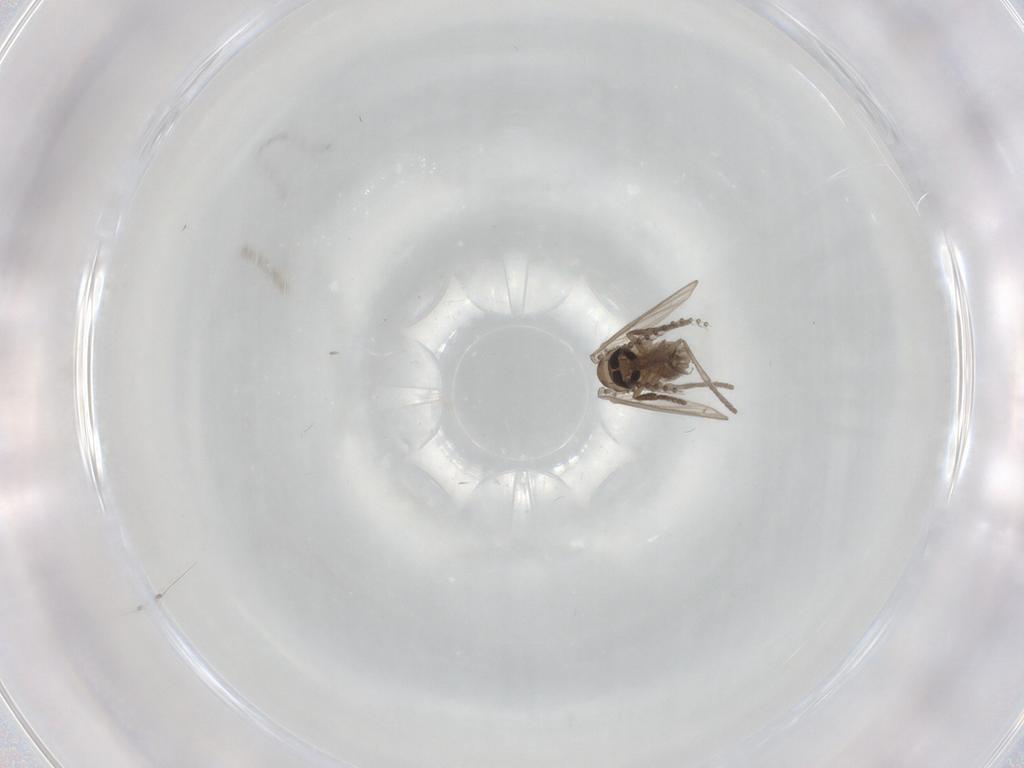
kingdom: Animalia
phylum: Arthropoda
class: Insecta
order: Diptera
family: Psychodidae
